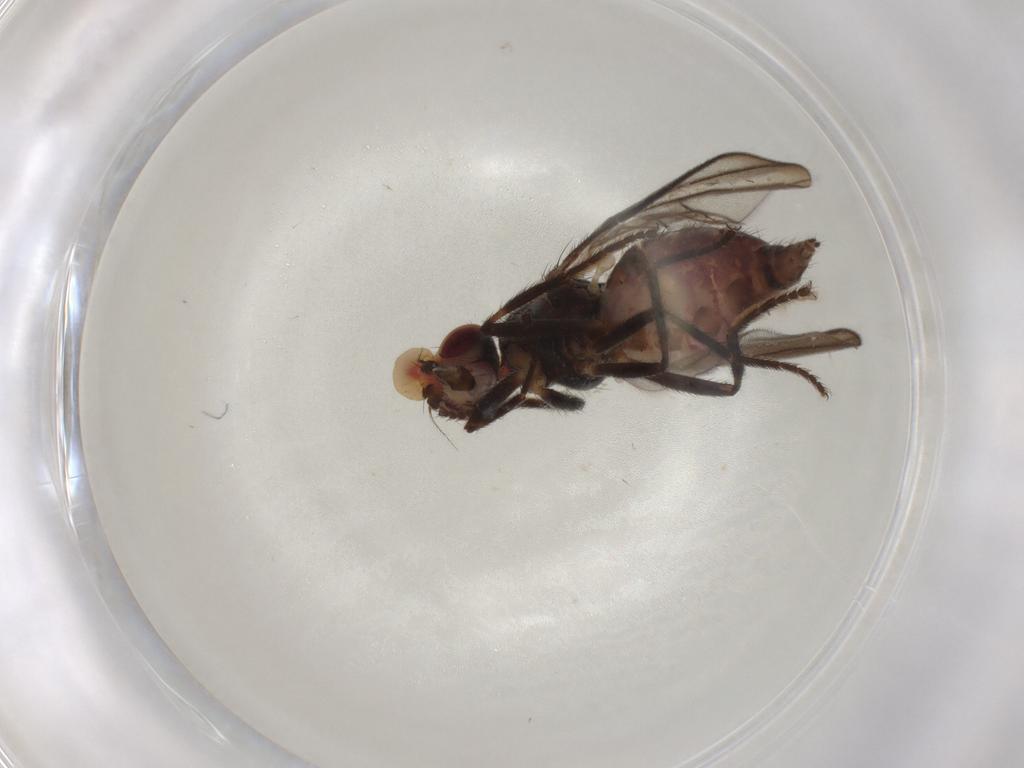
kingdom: Animalia
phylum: Arthropoda
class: Insecta
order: Diptera
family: Chloropidae
